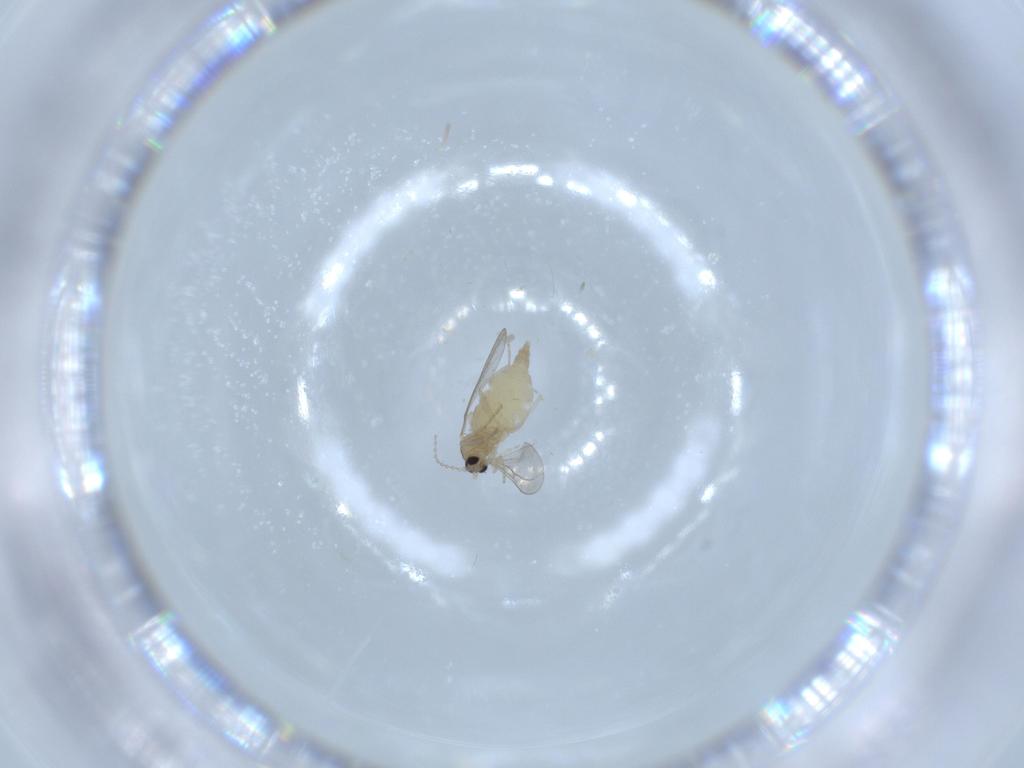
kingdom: Animalia
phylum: Arthropoda
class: Insecta
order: Diptera
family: Cecidomyiidae
